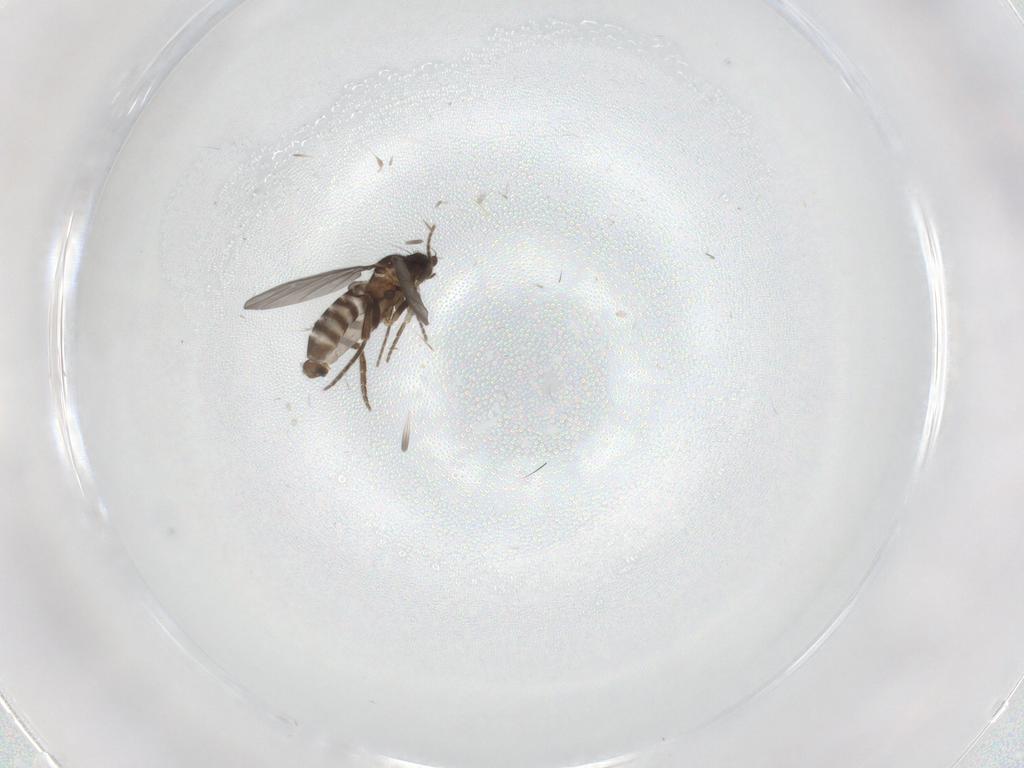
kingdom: Animalia
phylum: Arthropoda
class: Insecta
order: Diptera
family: Phoridae
